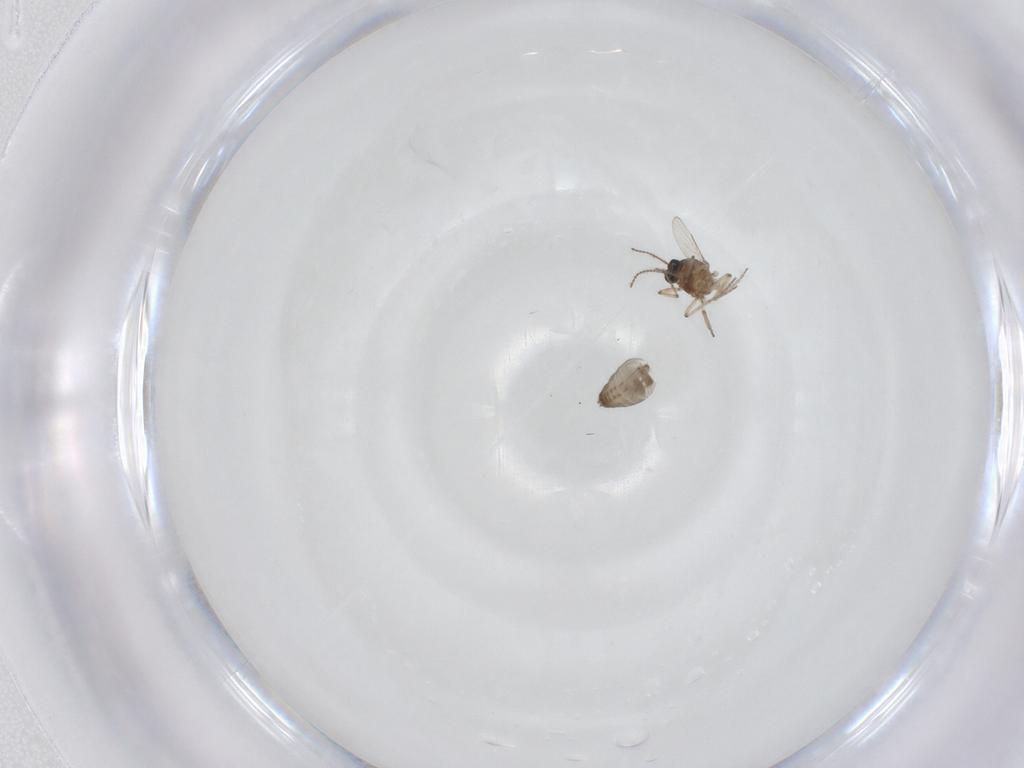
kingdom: Animalia
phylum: Arthropoda
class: Insecta
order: Diptera
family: Ceratopogonidae
